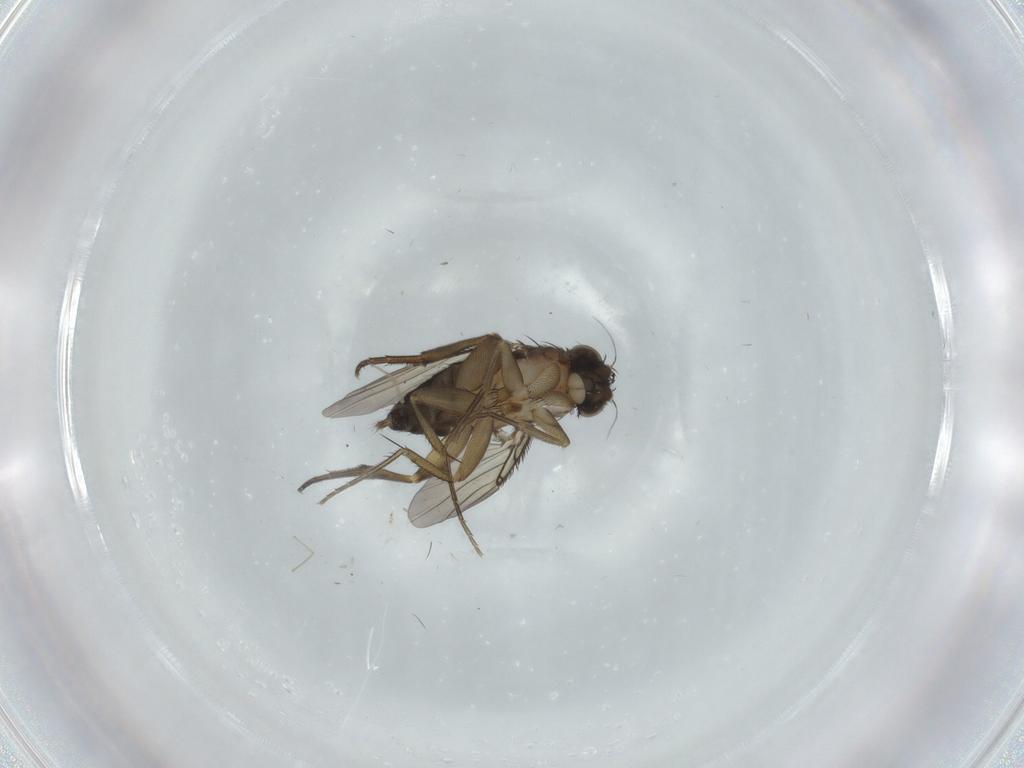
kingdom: Animalia
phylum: Arthropoda
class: Insecta
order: Diptera
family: Phoridae
